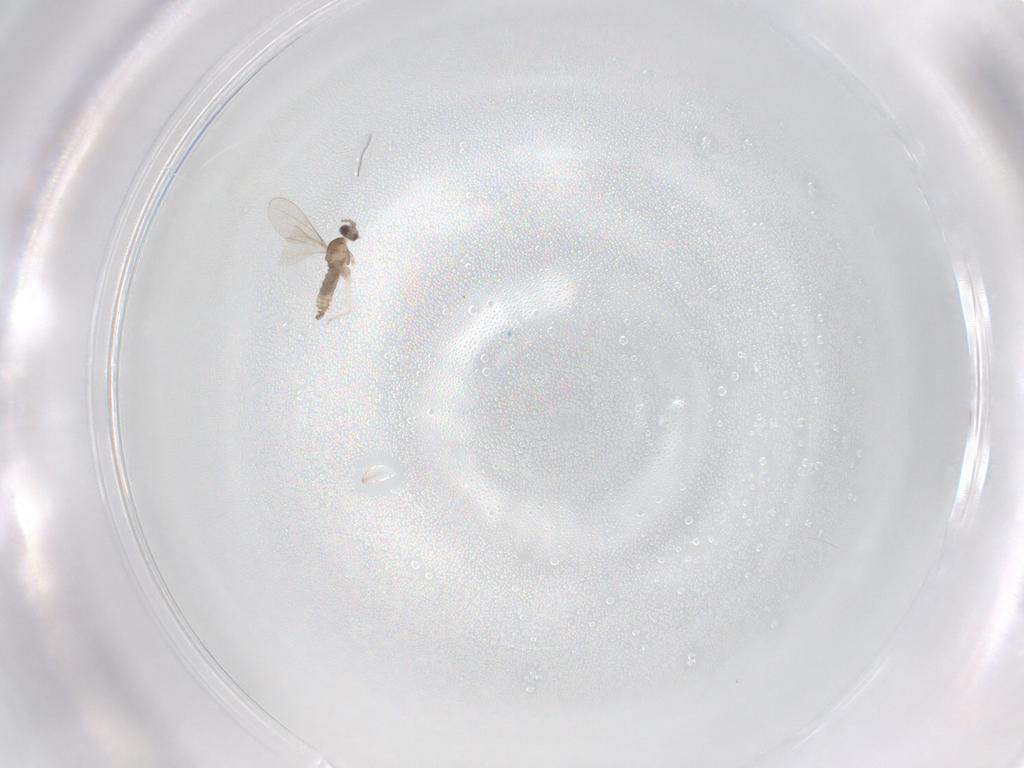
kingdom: Animalia
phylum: Arthropoda
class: Insecta
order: Diptera
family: Cecidomyiidae
